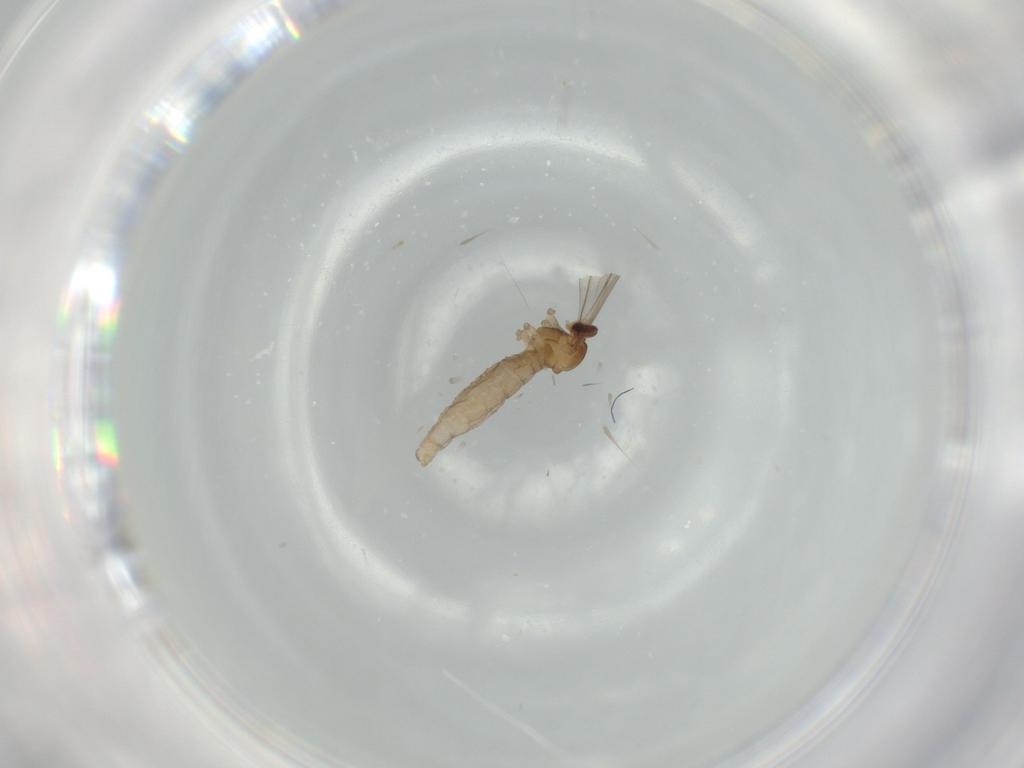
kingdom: Animalia
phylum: Arthropoda
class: Insecta
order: Diptera
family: Cecidomyiidae
